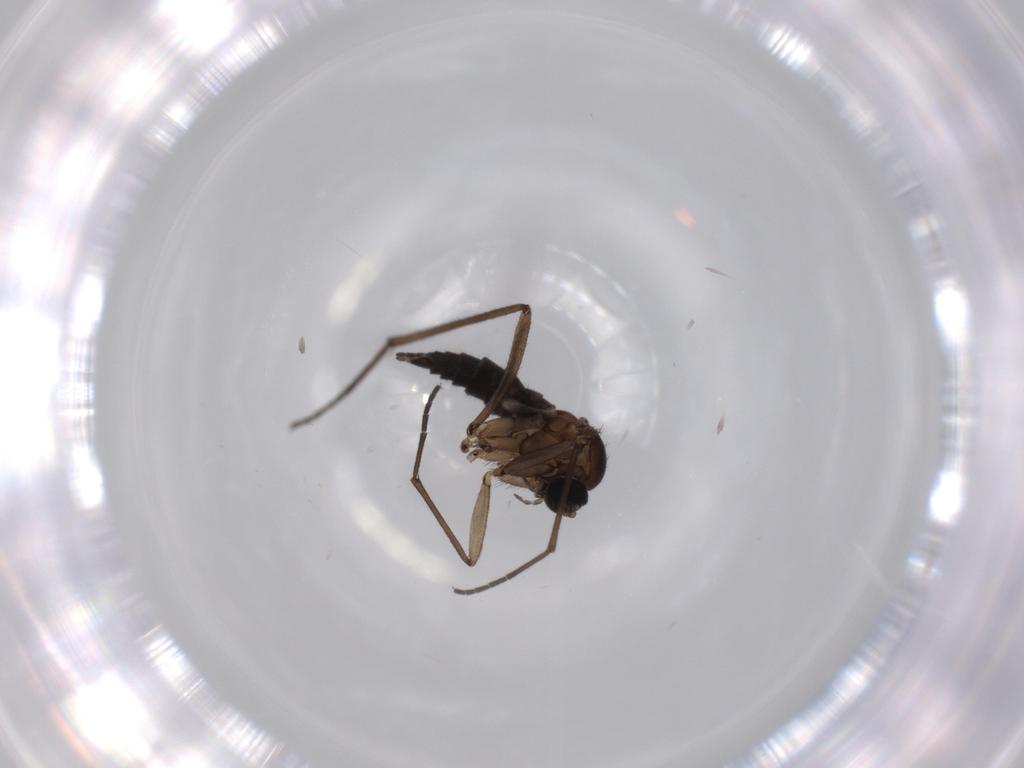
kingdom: Animalia
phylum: Arthropoda
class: Insecta
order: Diptera
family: Sciaridae
